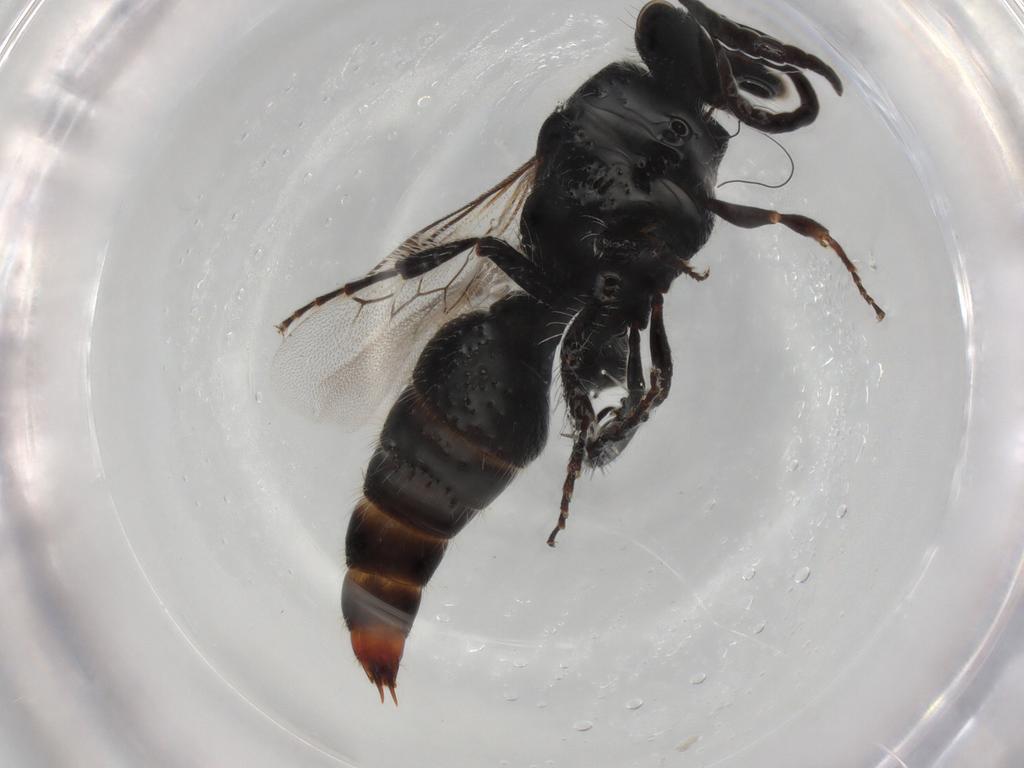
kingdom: Animalia
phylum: Arthropoda
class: Insecta
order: Hymenoptera
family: Mutillidae
